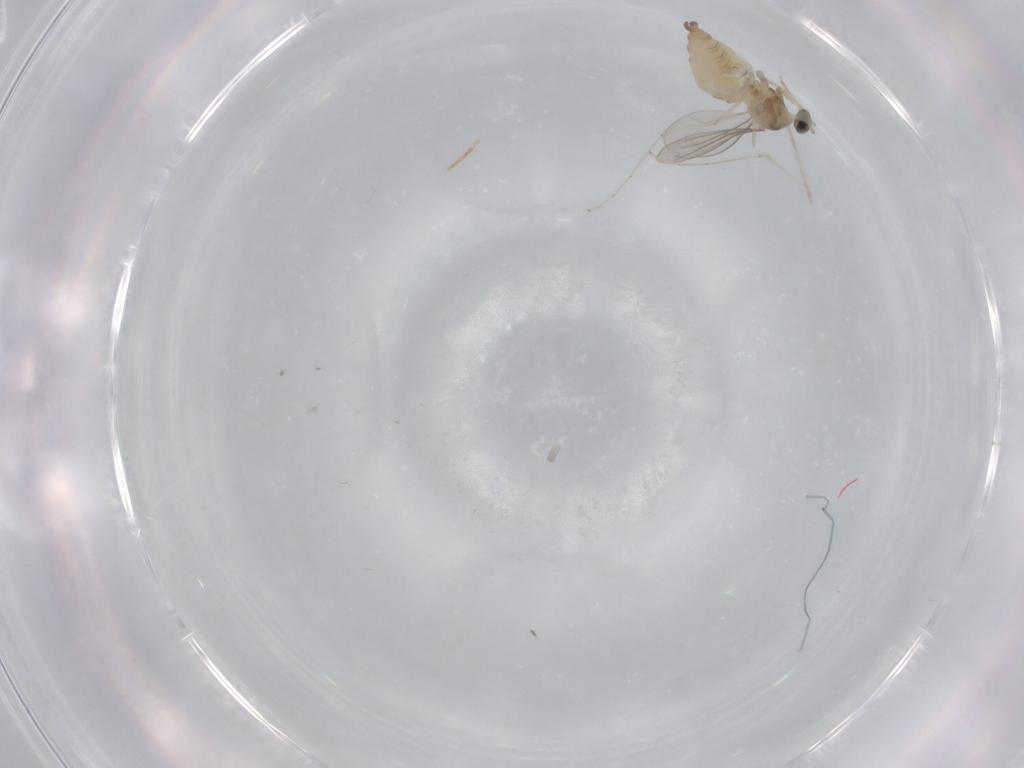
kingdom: Animalia
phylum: Arthropoda
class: Insecta
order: Diptera
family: Cecidomyiidae
